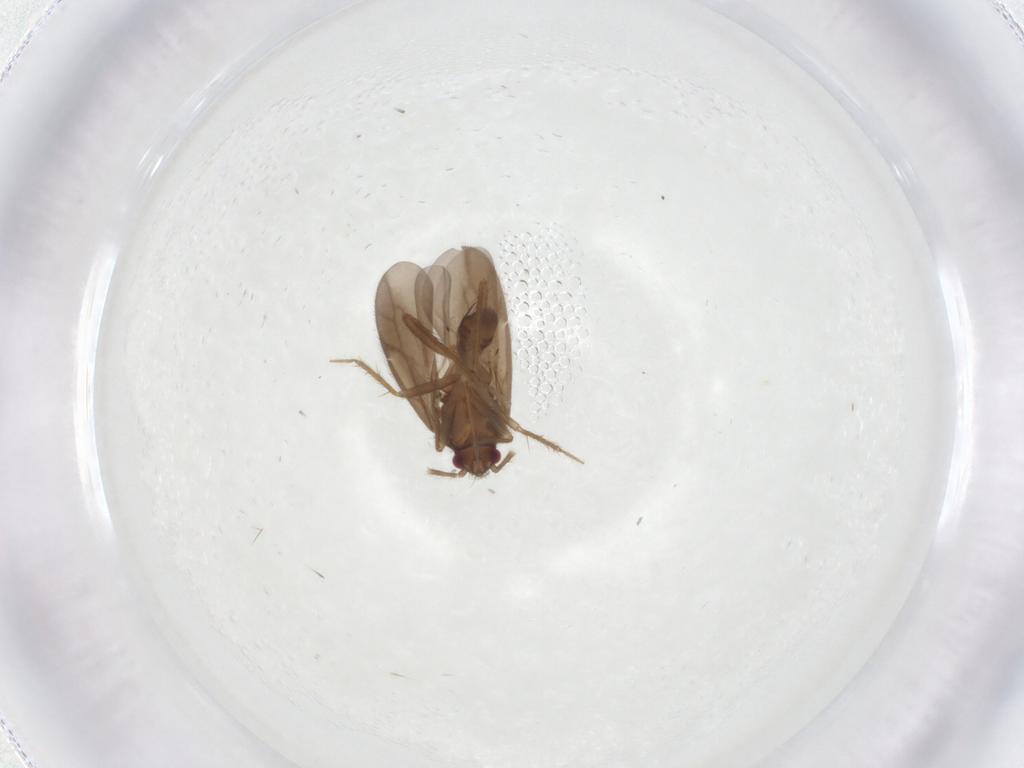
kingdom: Animalia
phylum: Arthropoda
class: Insecta
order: Hemiptera
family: Ceratocombidae
